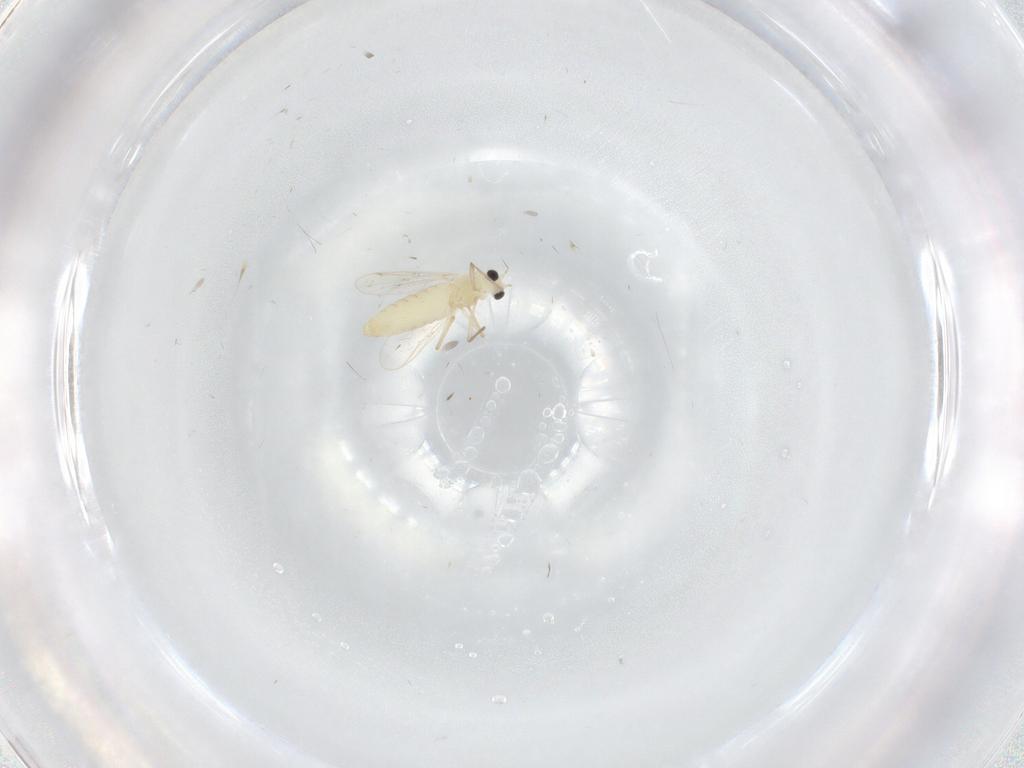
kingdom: Animalia
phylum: Arthropoda
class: Insecta
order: Diptera
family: Chironomidae
